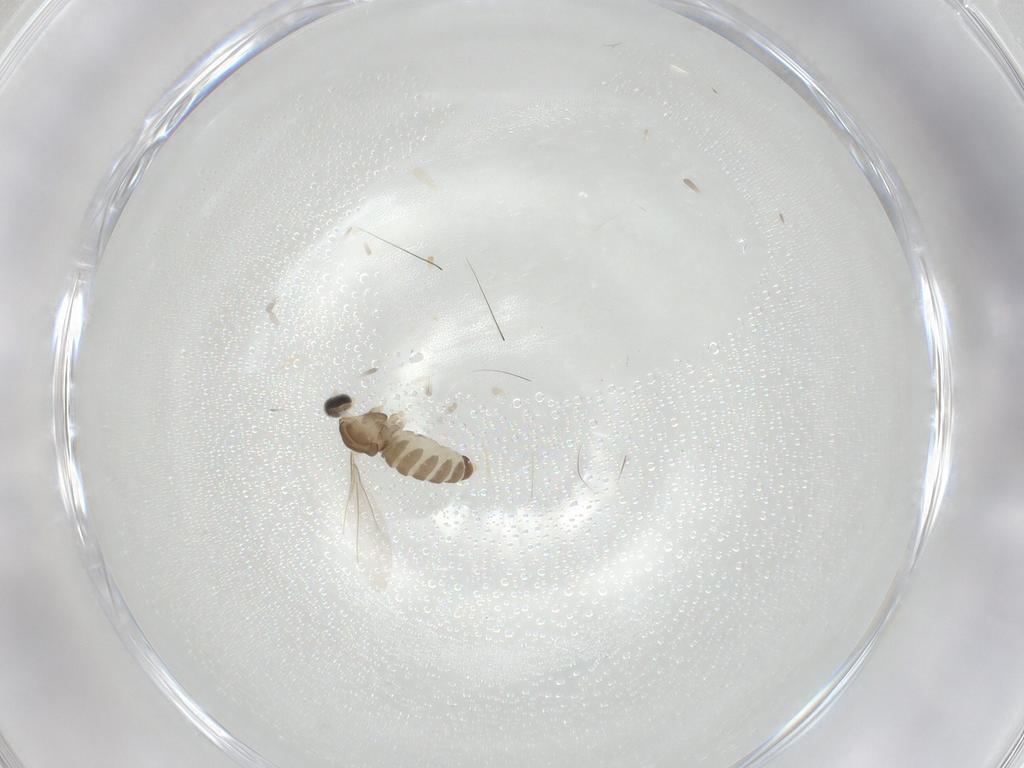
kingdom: Animalia
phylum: Arthropoda
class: Insecta
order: Diptera
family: Cecidomyiidae
